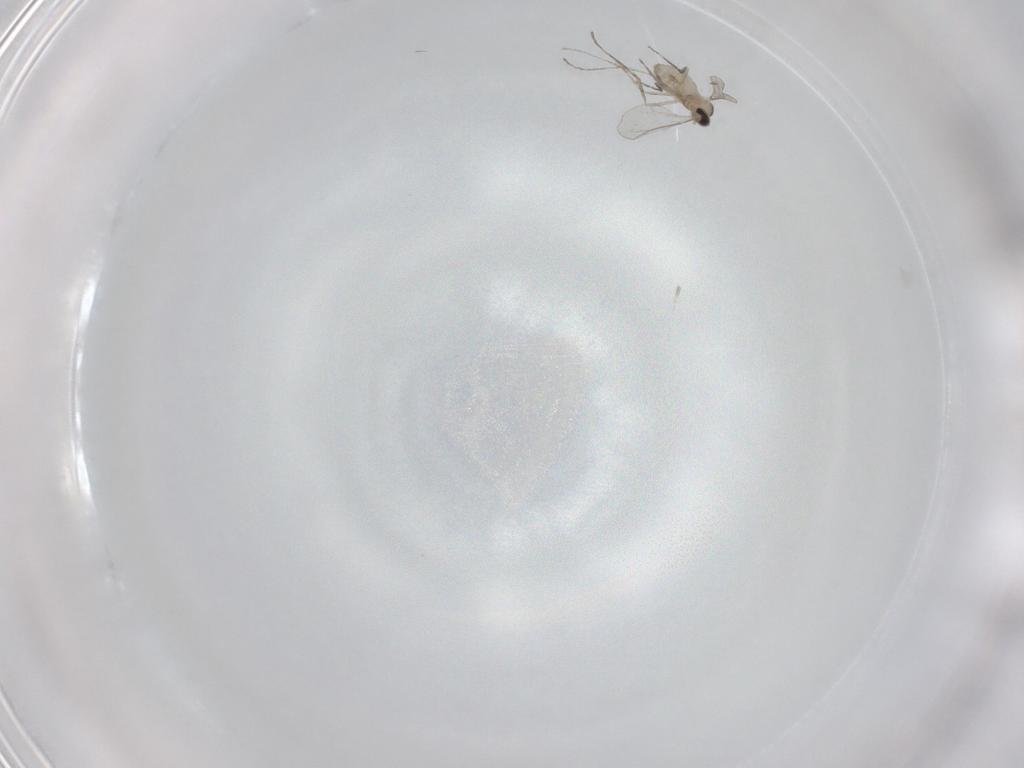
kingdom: Animalia
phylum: Arthropoda
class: Insecta
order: Diptera
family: Cecidomyiidae
